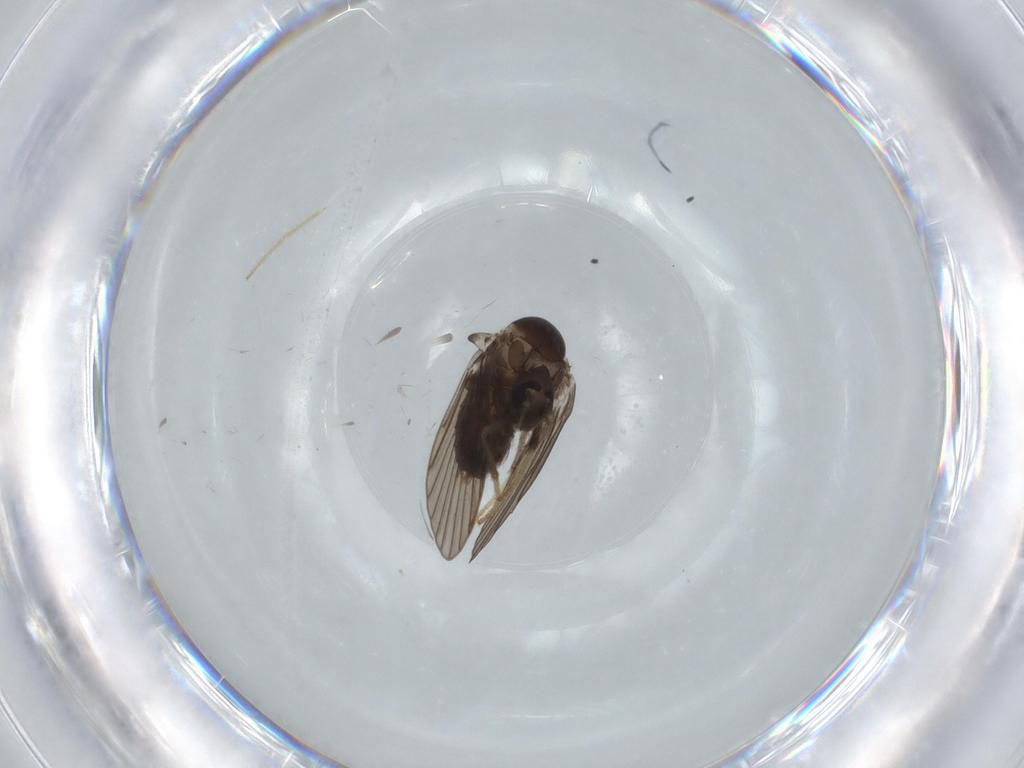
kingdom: Animalia
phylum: Arthropoda
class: Insecta
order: Diptera
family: Psychodidae
